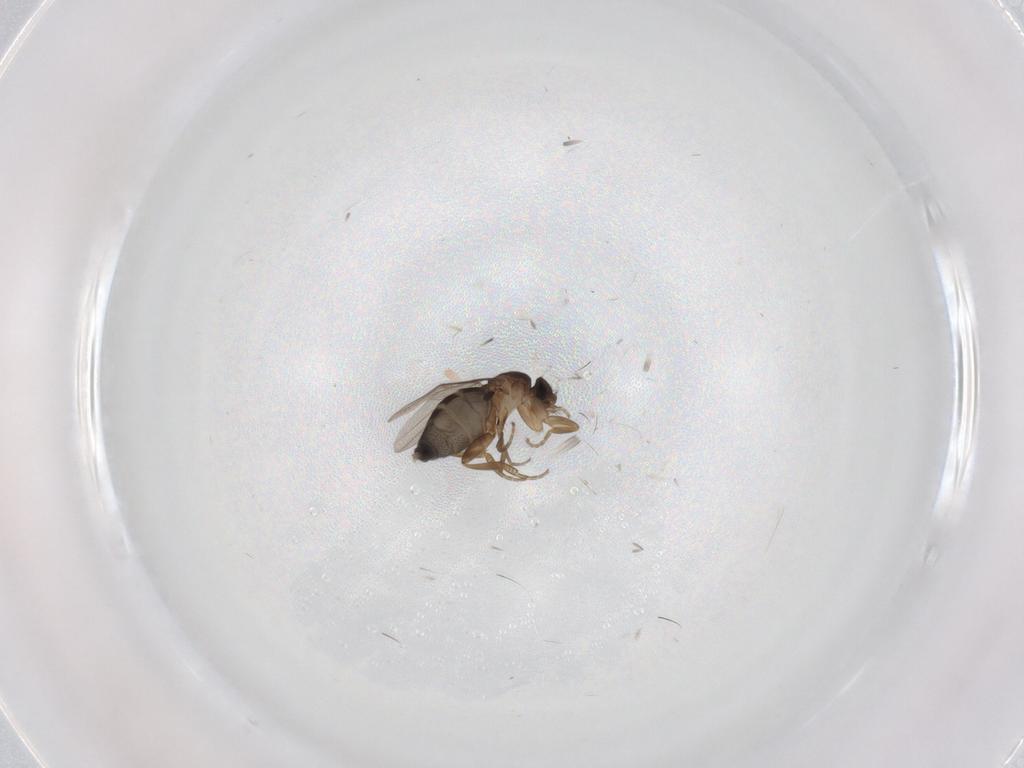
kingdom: Animalia
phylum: Arthropoda
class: Insecta
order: Diptera
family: Phoridae
